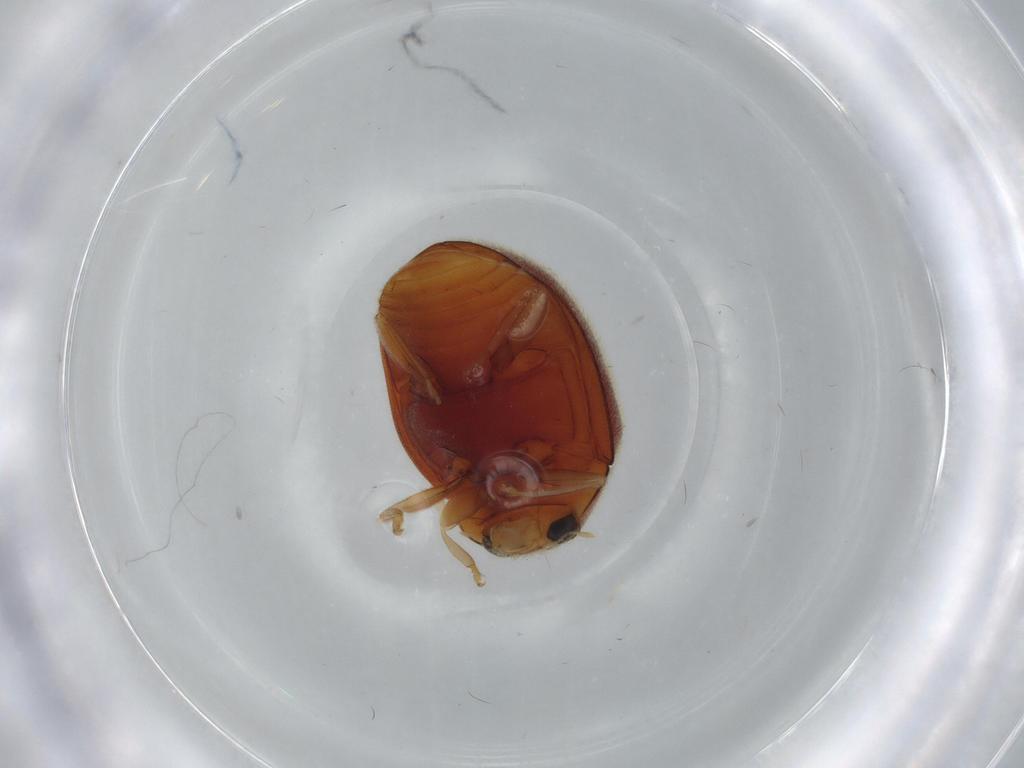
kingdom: Animalia
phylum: Arthropoda
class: Insecta
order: Coleoptera
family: Coccinellidae
